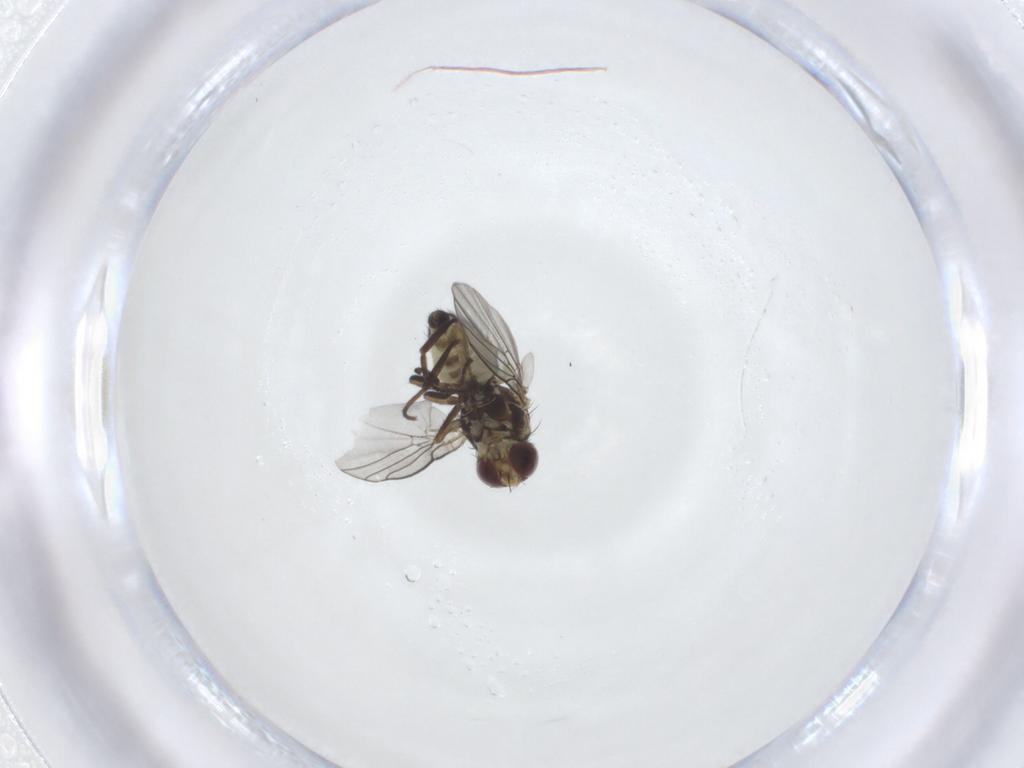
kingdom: Animalia
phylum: Arthropoda
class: Insecta
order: Diptera
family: Agromyzidae
